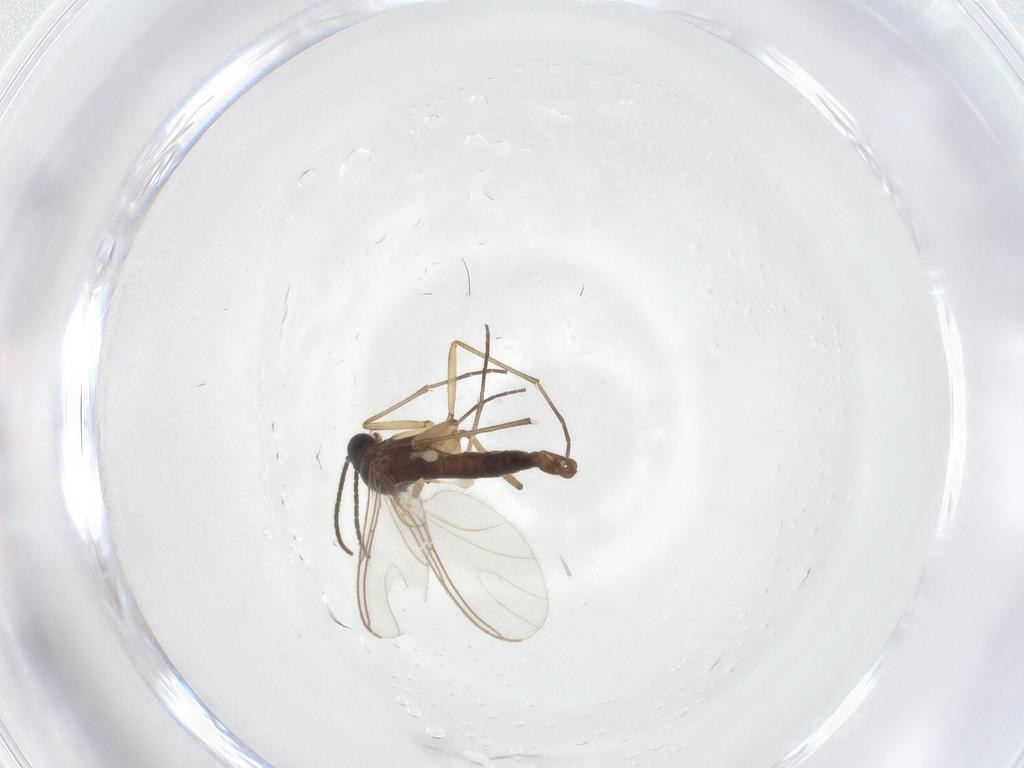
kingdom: Animalia
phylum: Arthropoda
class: Insecta
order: Diptera
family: Sciaridae
